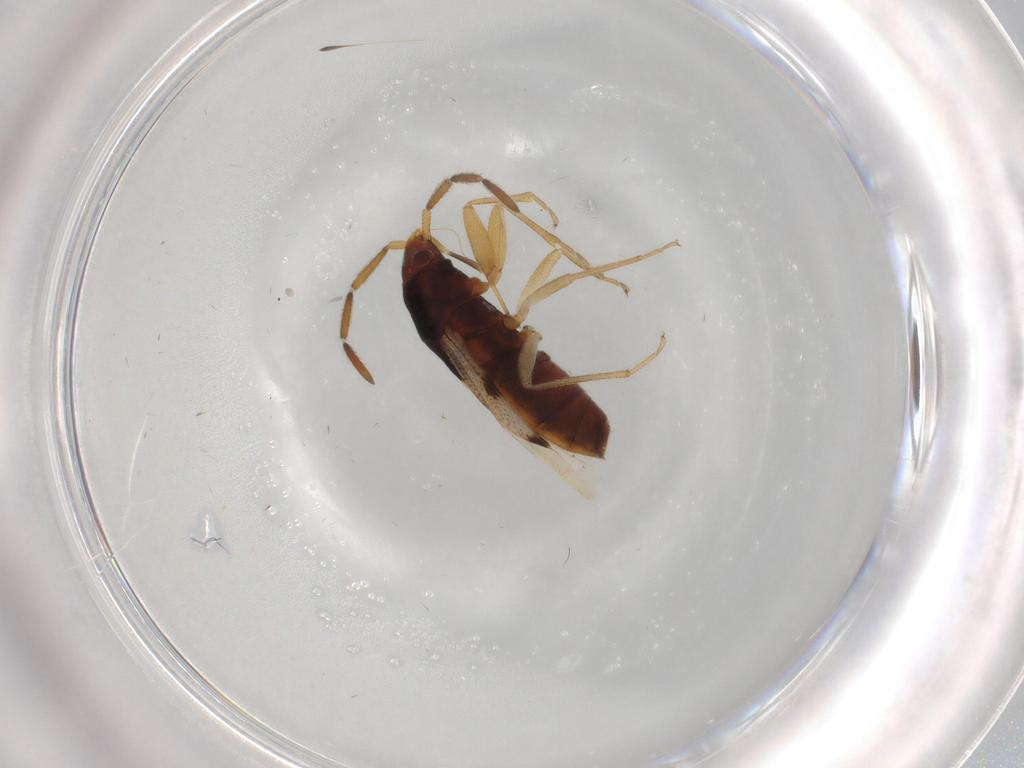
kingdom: Animalia
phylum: Arthropoda
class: Insecta
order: Hemiptera
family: Rhyparochromidae
